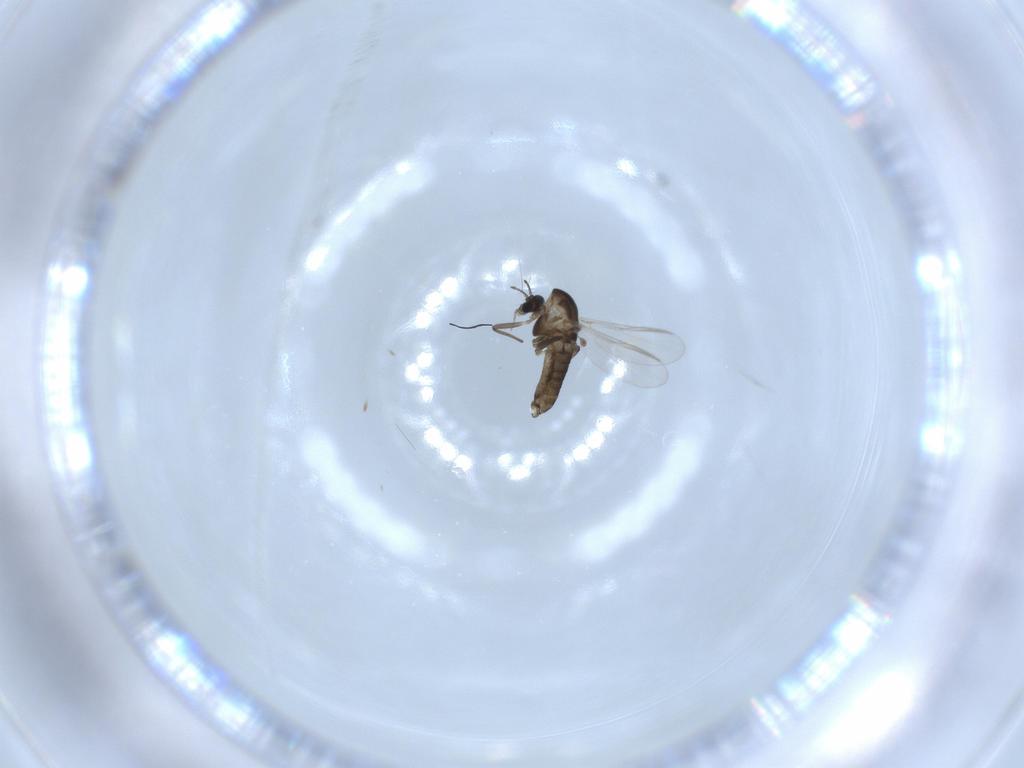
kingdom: Animalia
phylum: Arthropoda
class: Insecta
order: Diptera
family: Chironomidae
